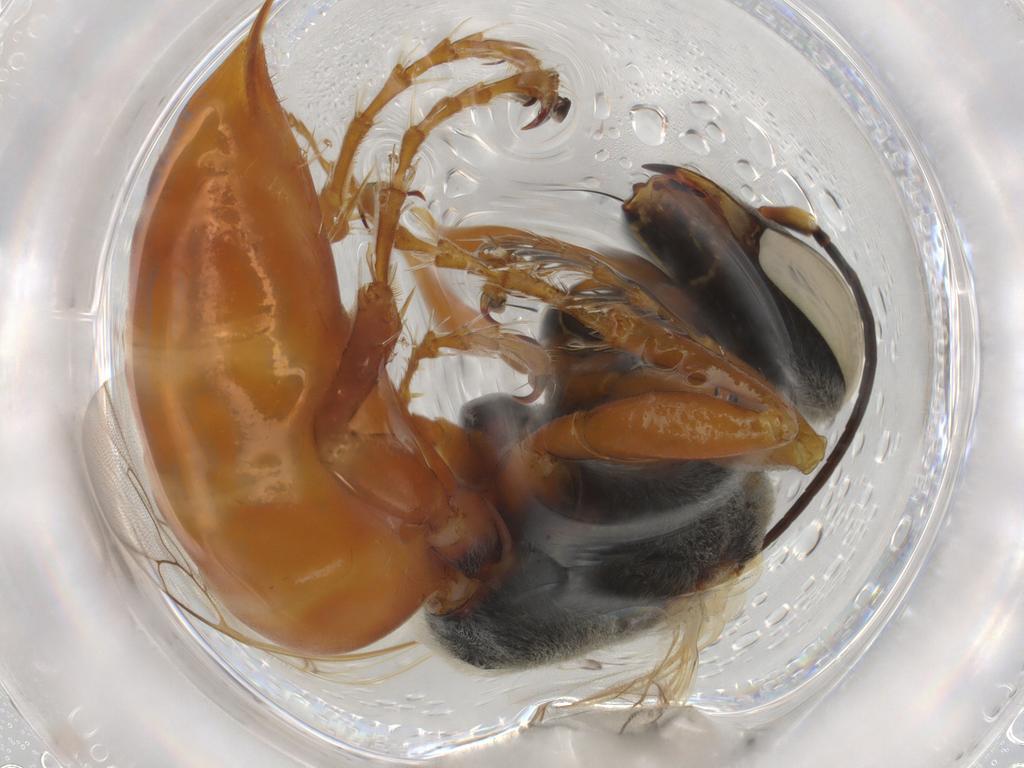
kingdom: Animalia
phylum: Arthropoda
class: Insecta
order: Hymenoptera
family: Crabronidae
